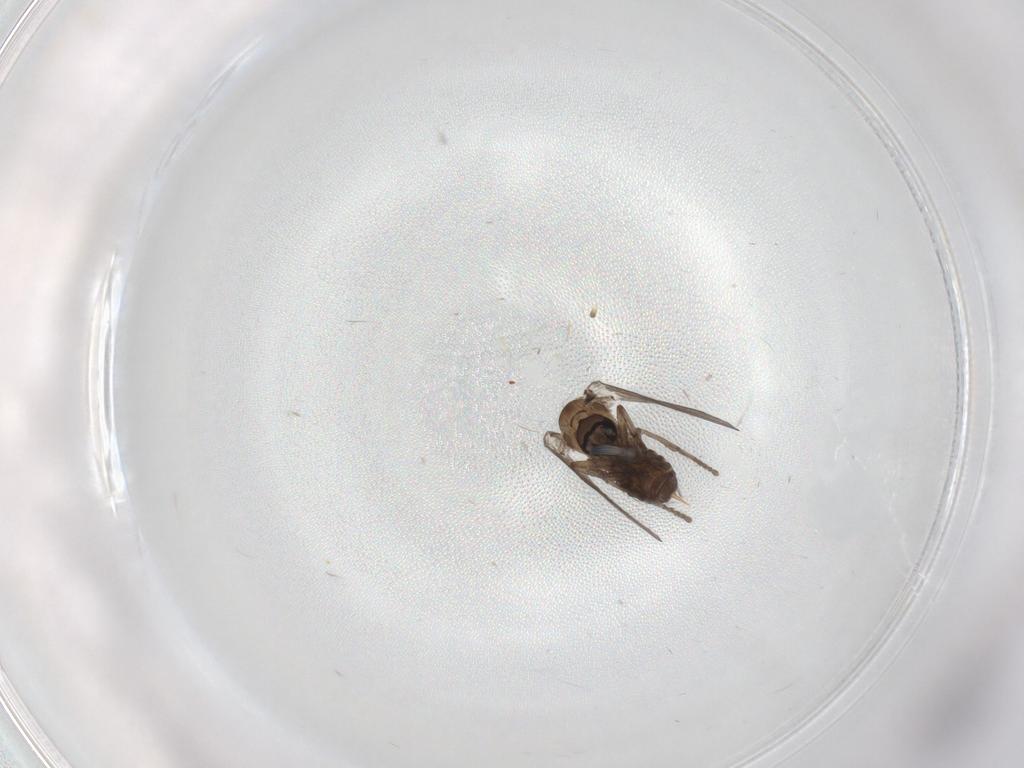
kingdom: Animalia
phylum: Arthropoda
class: Insecta
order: Diptera
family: Psychodidae
